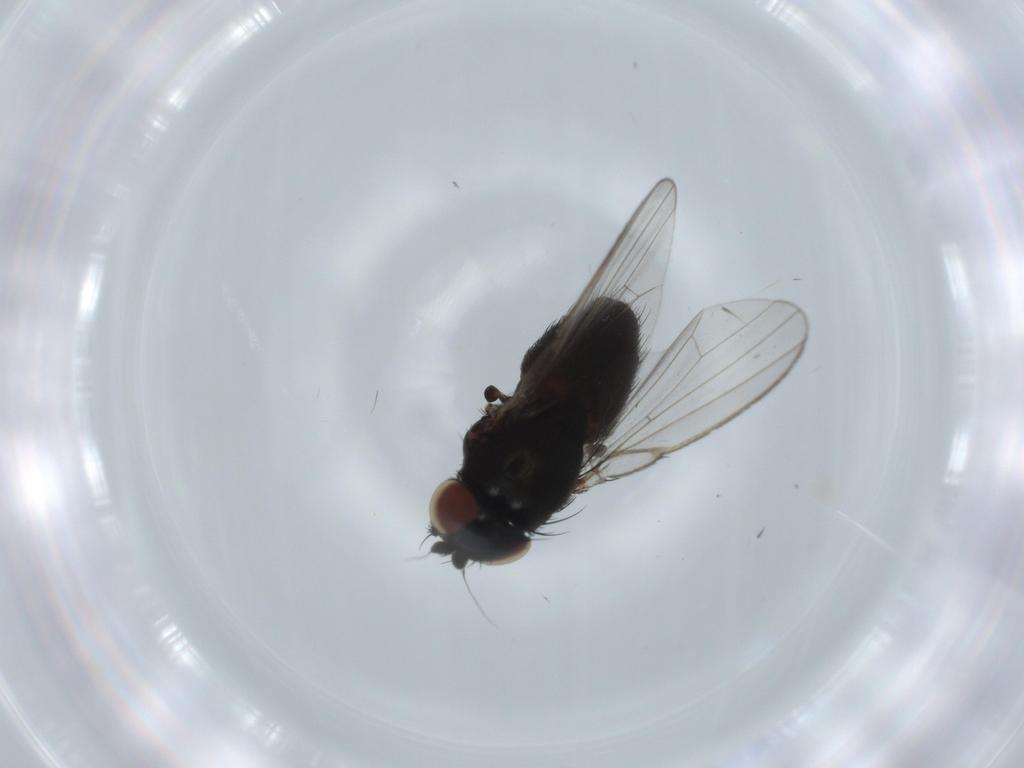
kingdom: Animalia
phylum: Arthropoda
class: Insecta
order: Diptera
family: Milichiidae
